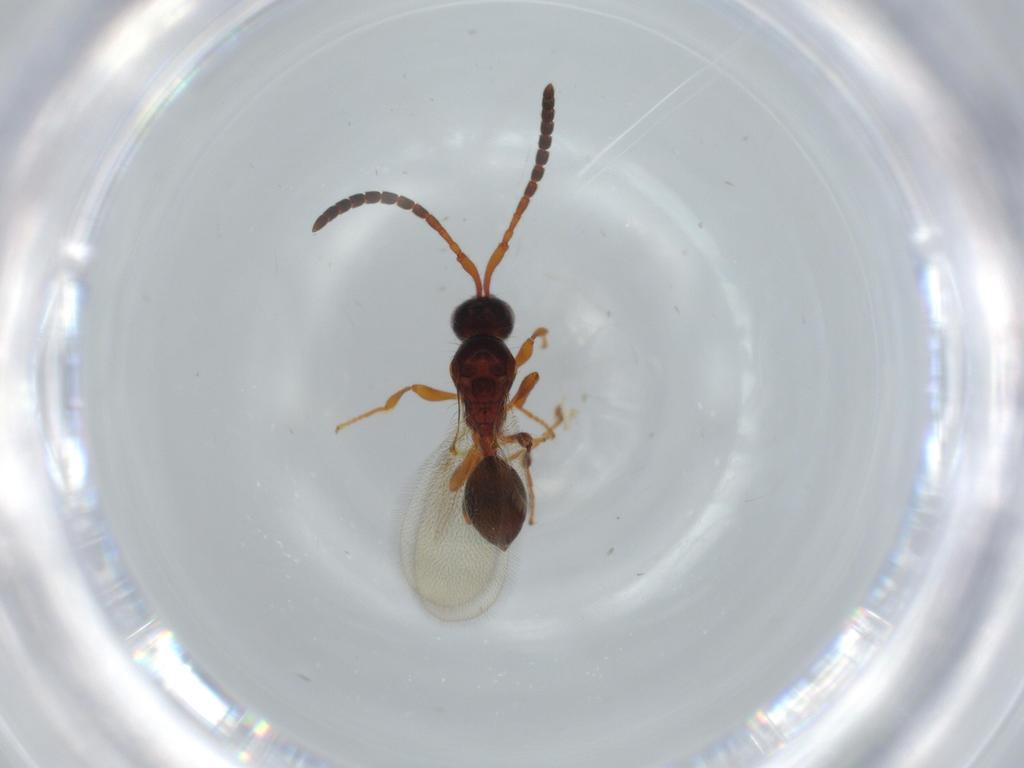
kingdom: Animalia
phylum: Arthropoda
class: Insecta
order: Hymenoptera
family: Diapriidae
